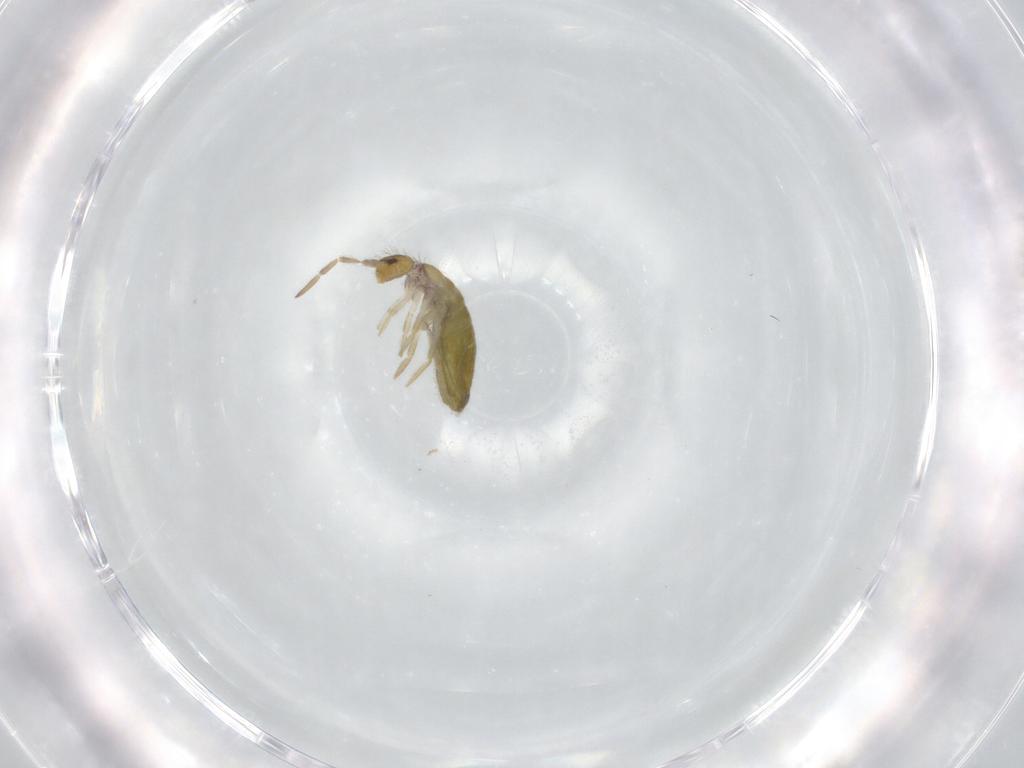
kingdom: Animalia
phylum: Arthropoda
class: Collembola
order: Entomobryomorpha
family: Entomobryidae
